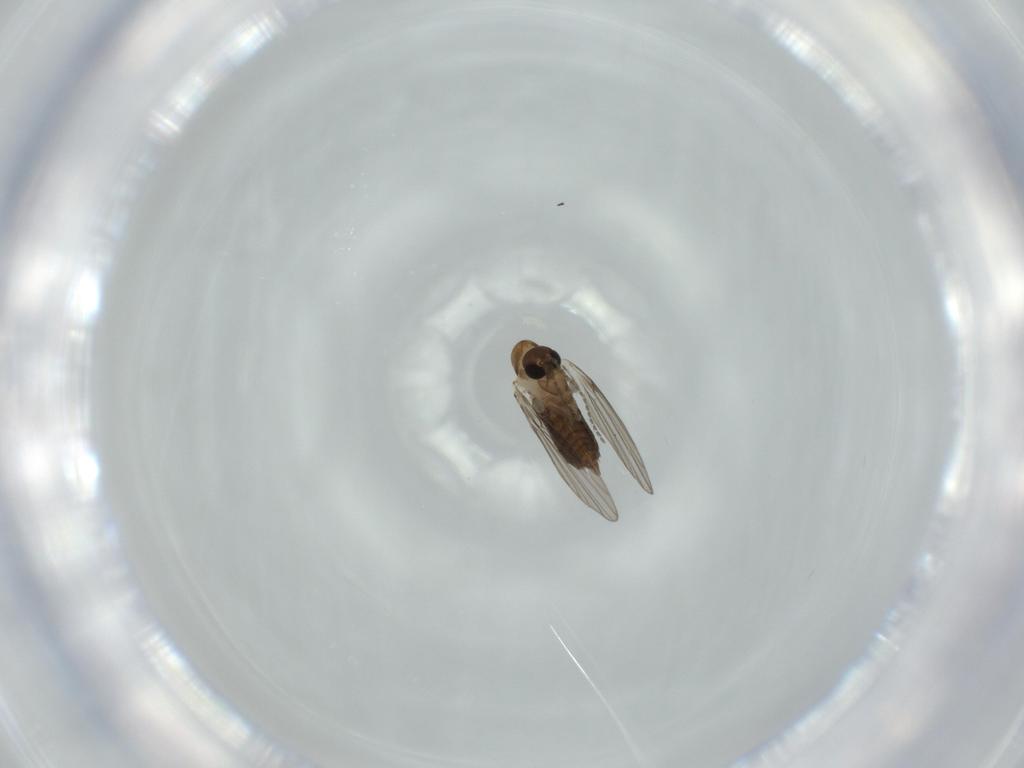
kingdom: Animalia
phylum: Arthropoda
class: Insecta
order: Diptera
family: Psychodidae
